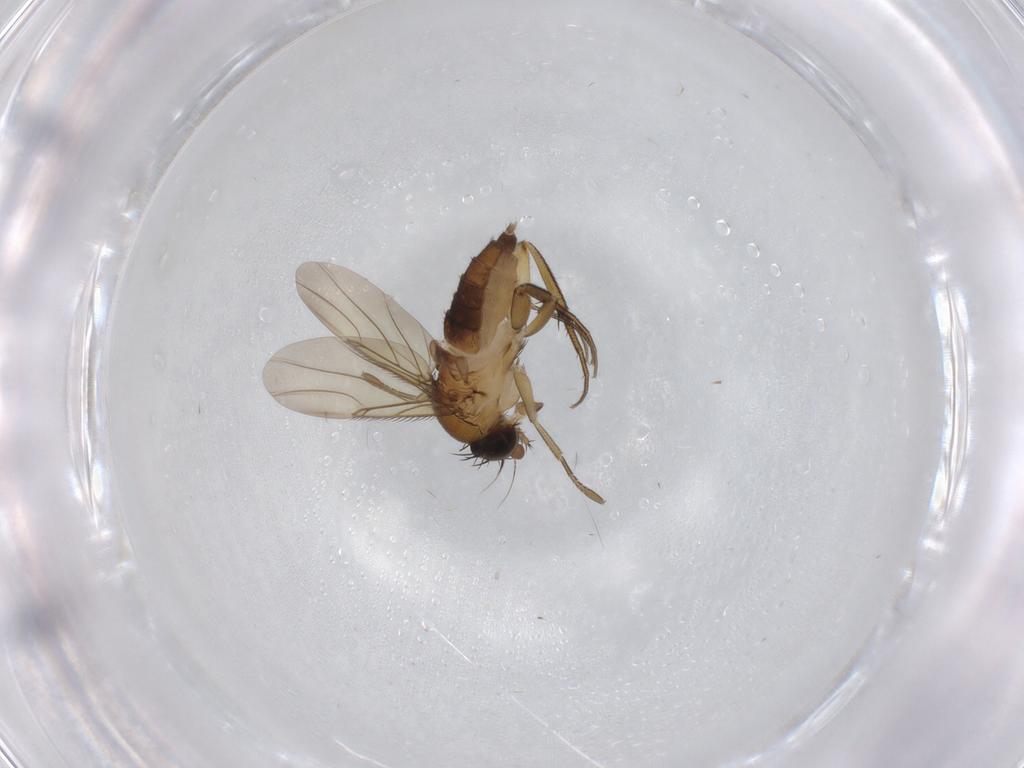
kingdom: Animalia
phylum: Arthropoda
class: Insecta
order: Diptera
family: Phoridae
